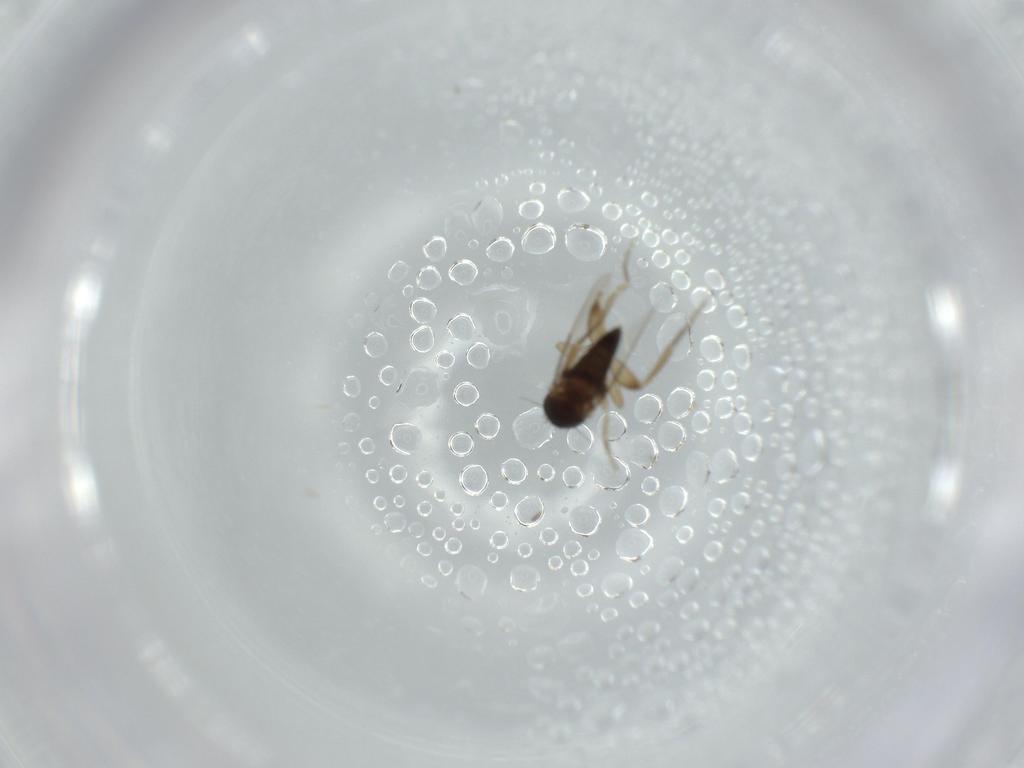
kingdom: Animalia
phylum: Arthropoda
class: Insecta
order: Diptera
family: Phoridae
